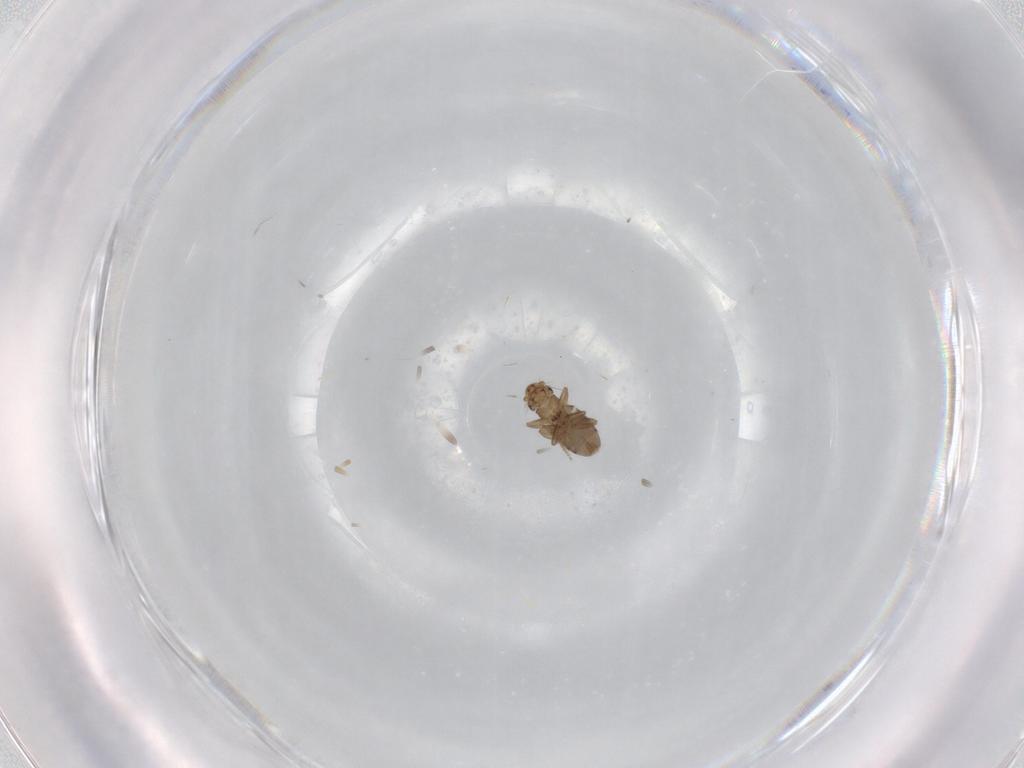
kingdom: Animalia
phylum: Arthropoda
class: Insecta
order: Diptera
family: Cecidomyiidae
